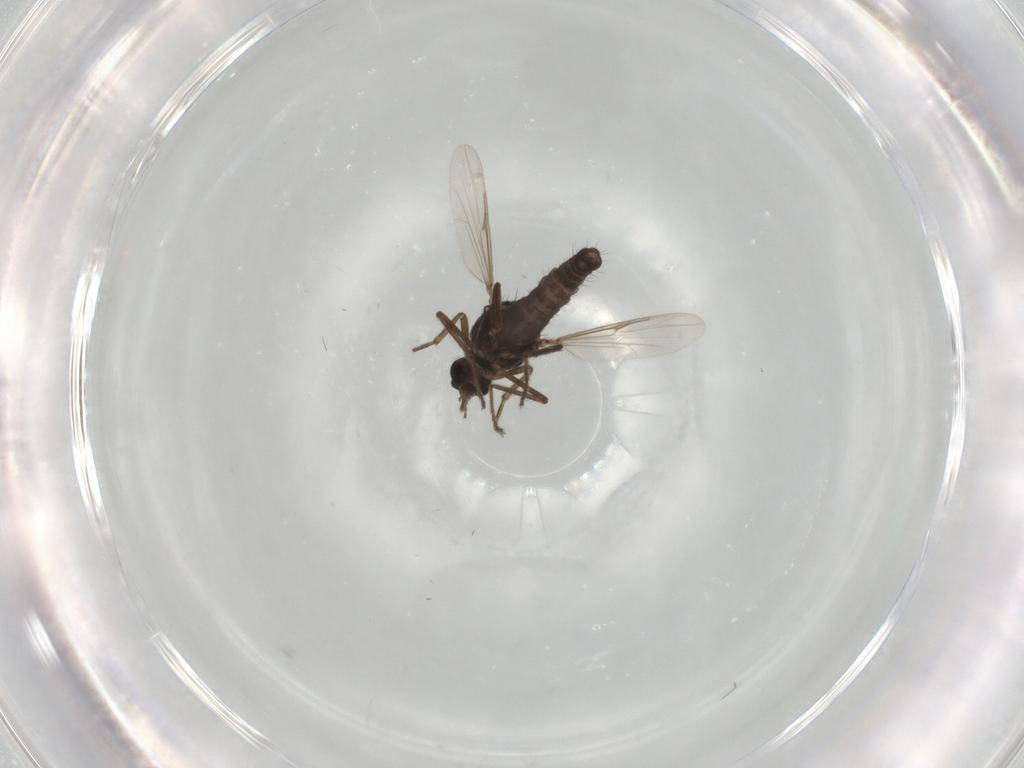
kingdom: Animalia
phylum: Arthropoda
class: Insecta
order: Diptera
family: Ceratopogonidae
